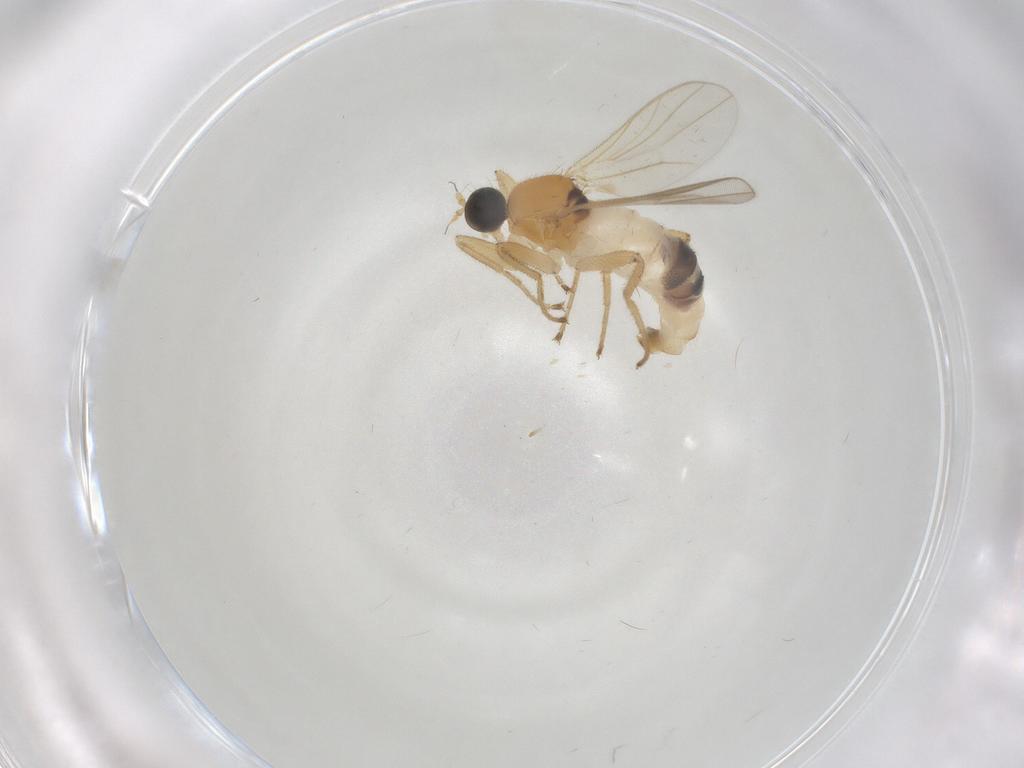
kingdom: Animalia
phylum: Arthropoda
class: Insecta
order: Diptera
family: Hybotidae
